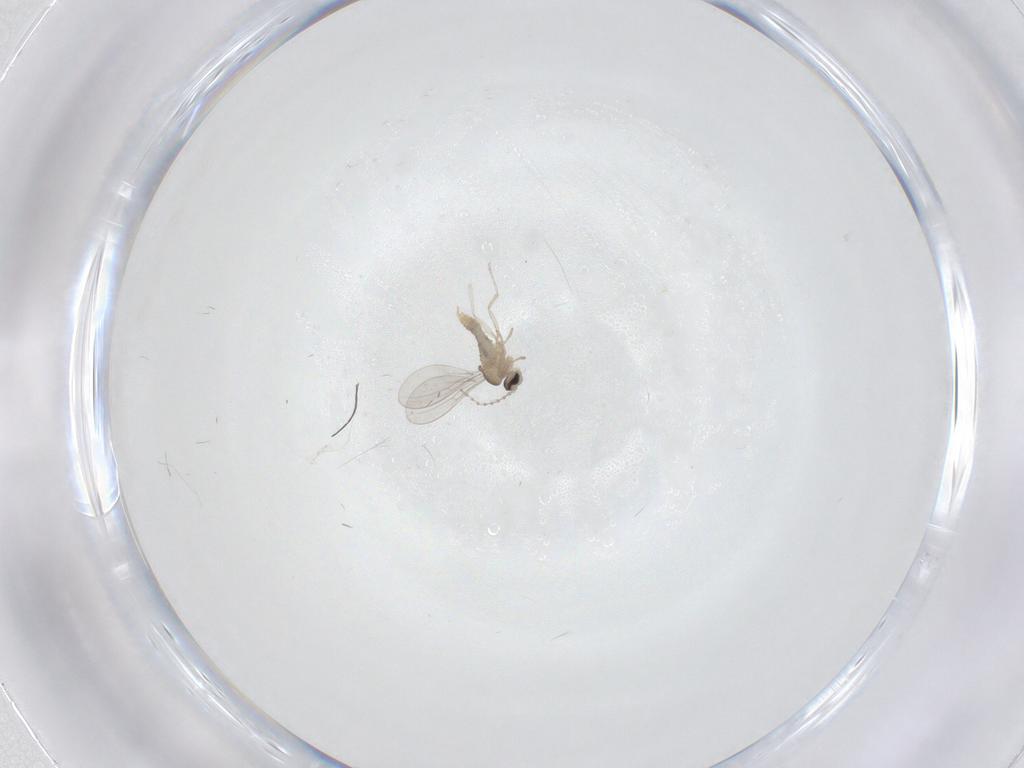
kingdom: Animalia
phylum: Arthropoda
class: Insecta
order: Diptera
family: Cecidomyiidae
